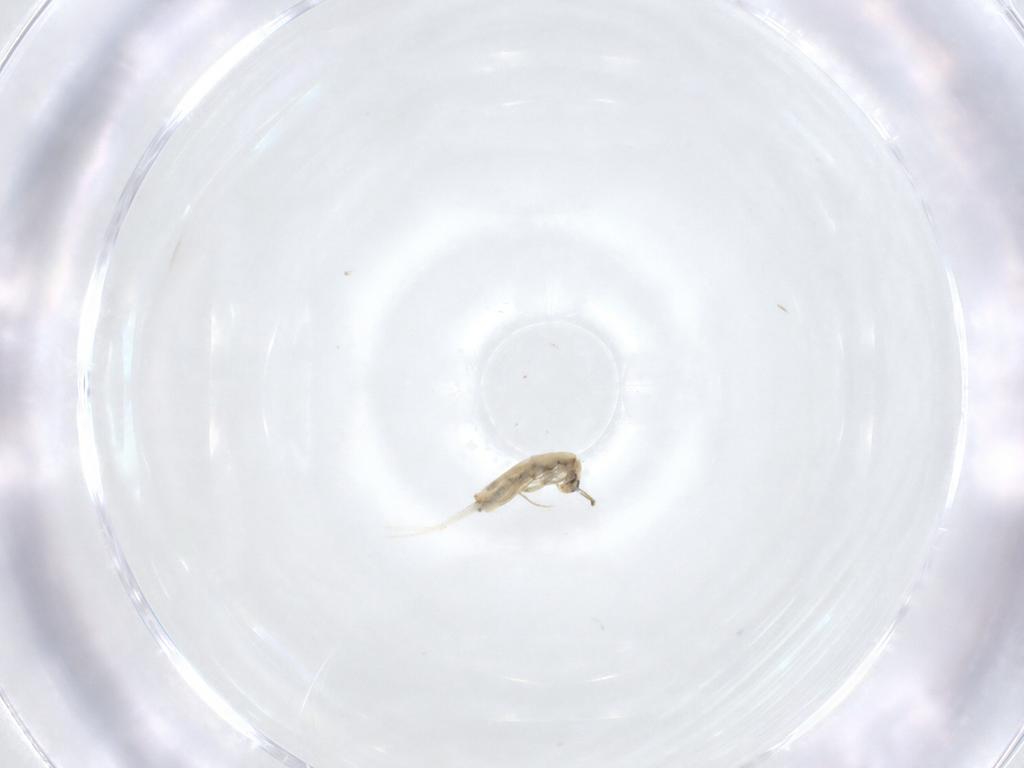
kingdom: Animalia
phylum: Arthropoda
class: Collembola
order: Entomobryomorpha
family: Paronellidae
